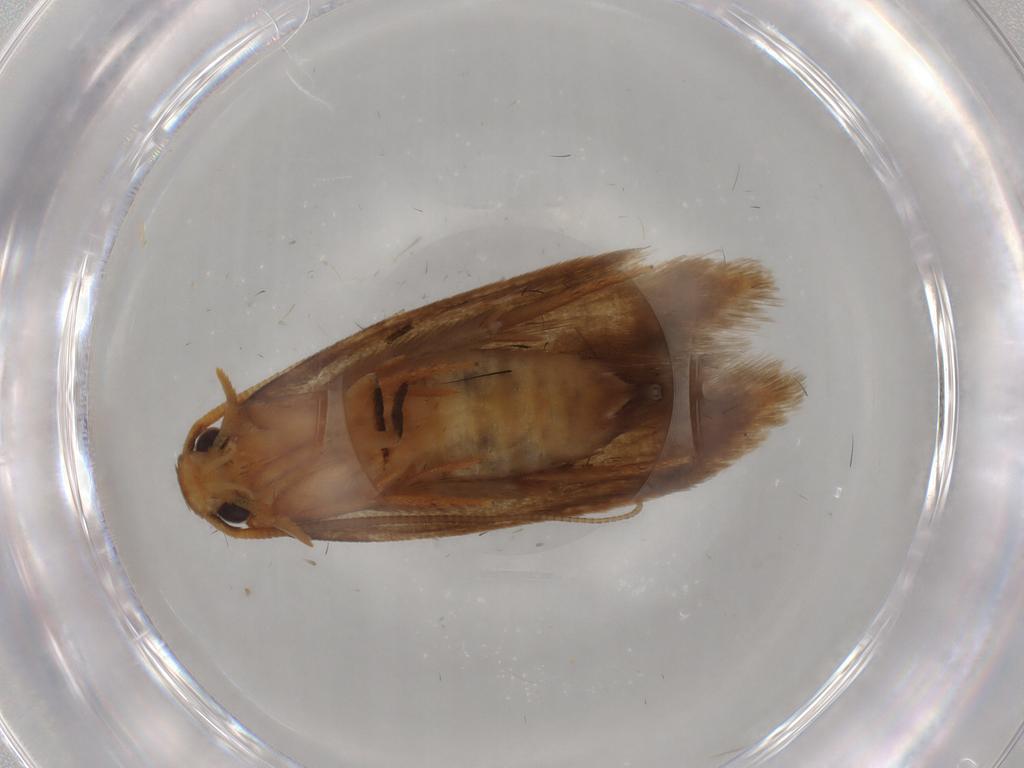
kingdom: Animalia
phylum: Arthropoda
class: Insecta
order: Lepidoptera
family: Tineidae
